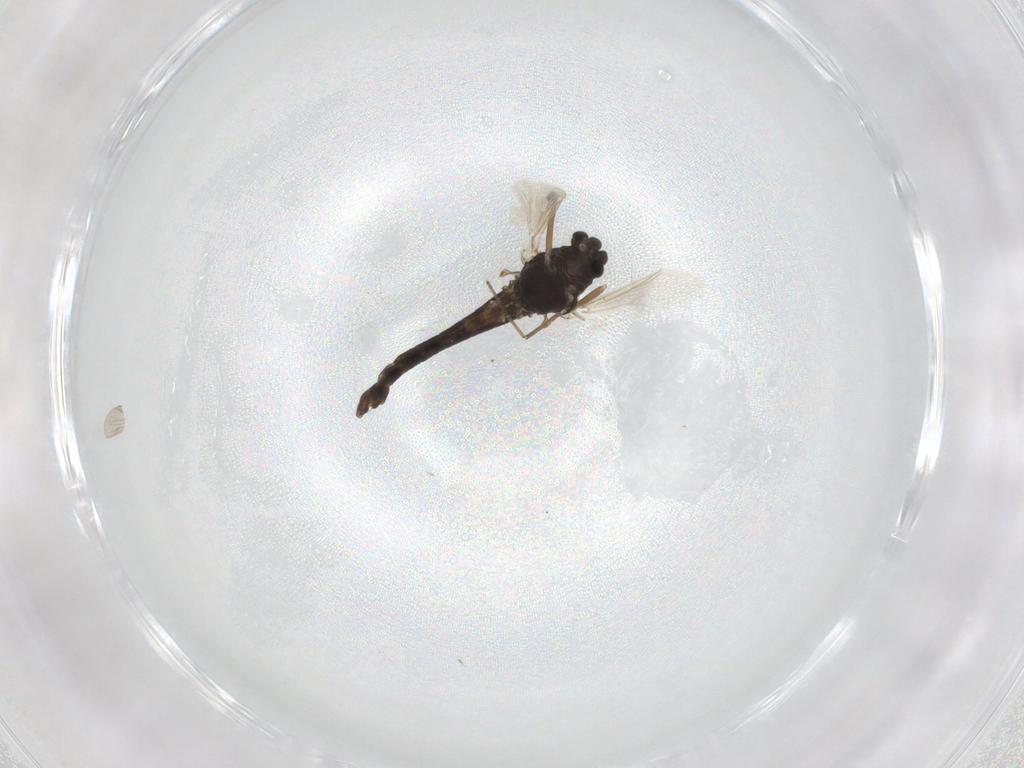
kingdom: Animalia
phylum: Arthropoda
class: Insecta
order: Diptera
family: Chironomidae
